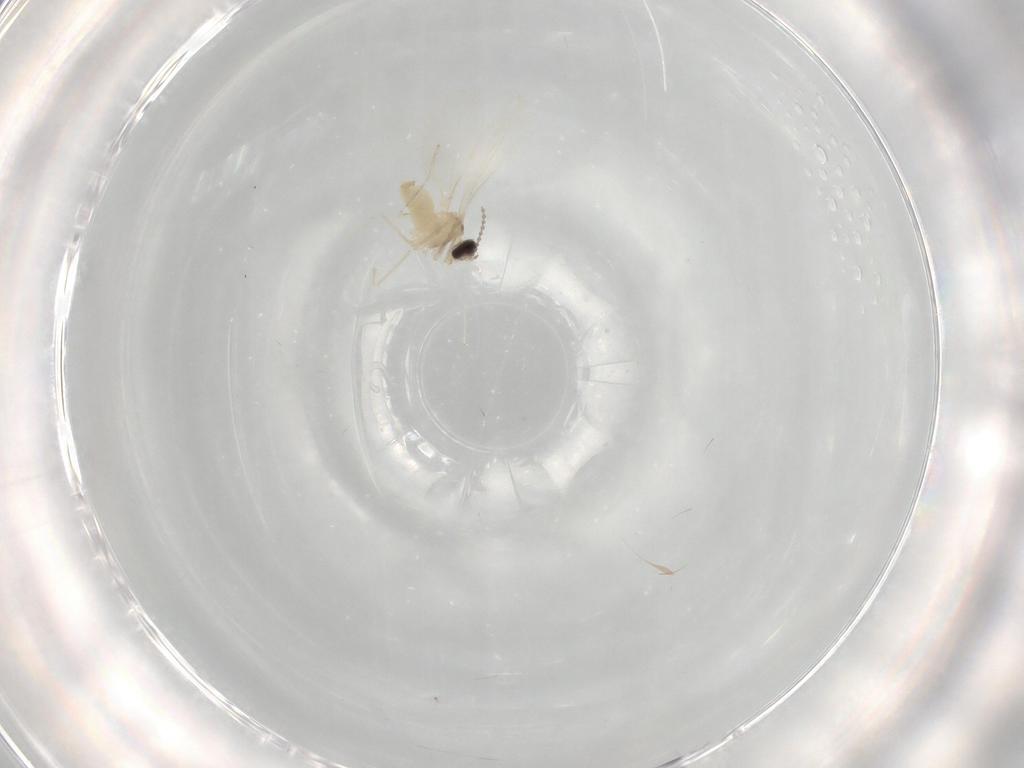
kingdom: Animalia
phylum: Arthropoda
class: Insecta
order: Diptera
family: Cecidomyiidae
